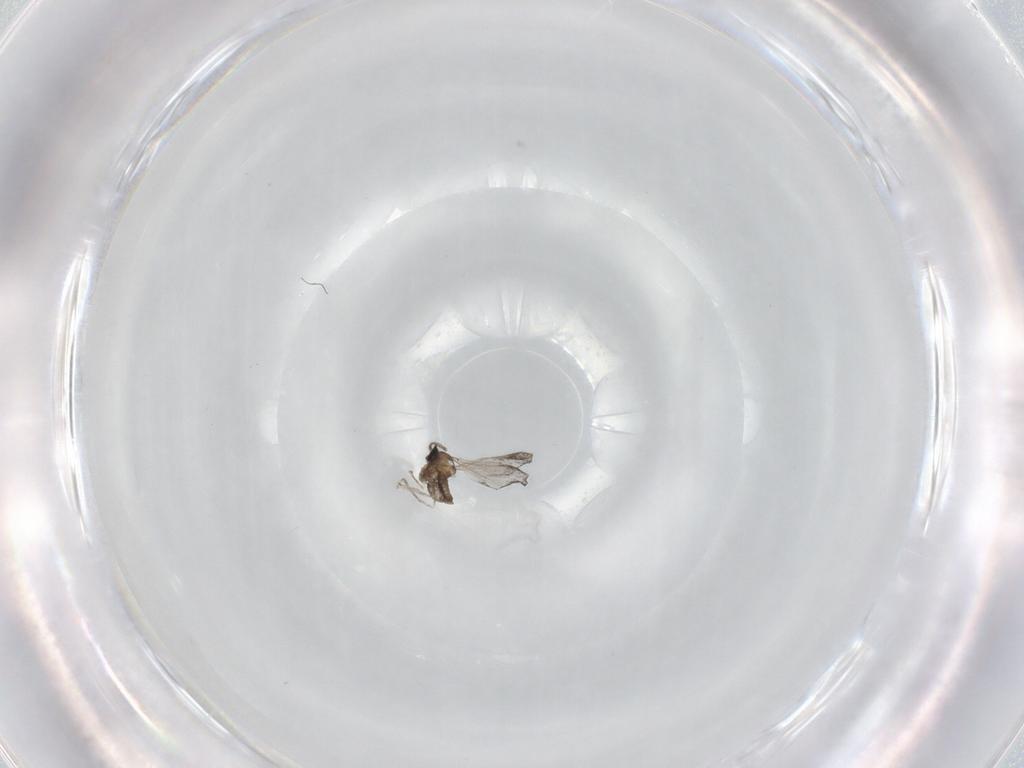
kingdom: Animalia
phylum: Arthropoda
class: Insecta
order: Diptera
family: Cecidomyiidae
